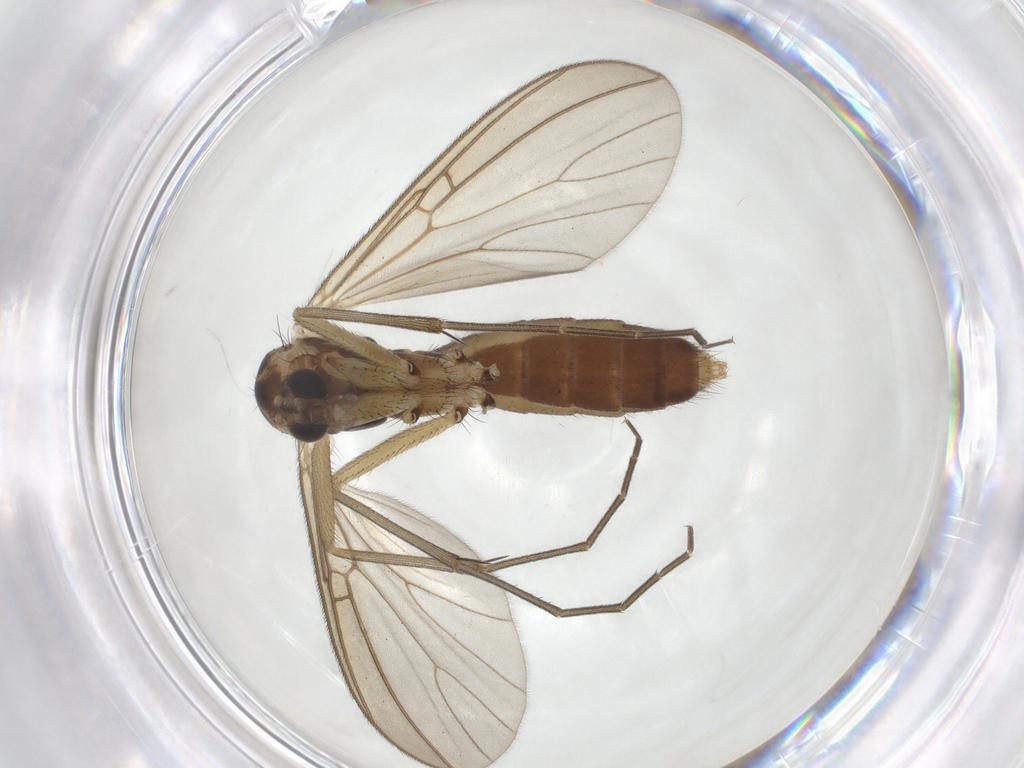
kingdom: Animalia
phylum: Arthropoda
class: Insecta
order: Diptera
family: Mycetophilidae
